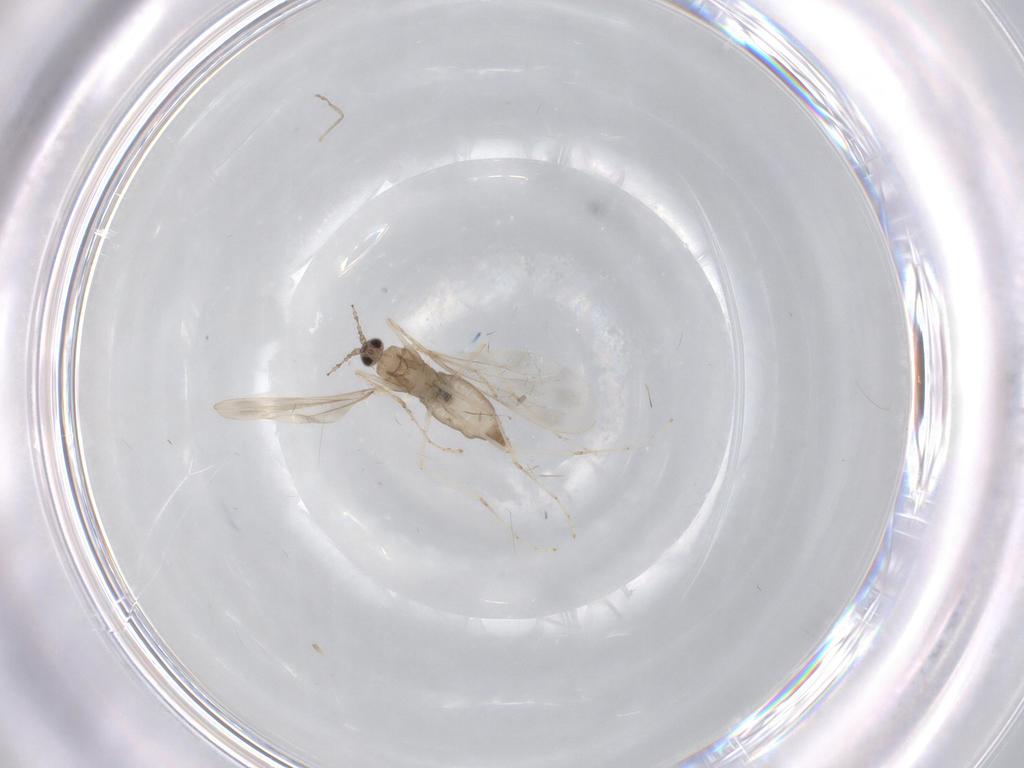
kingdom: Animalia
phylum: Arthropoda
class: Insecta
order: Diptera
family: Cecidomyiidae
